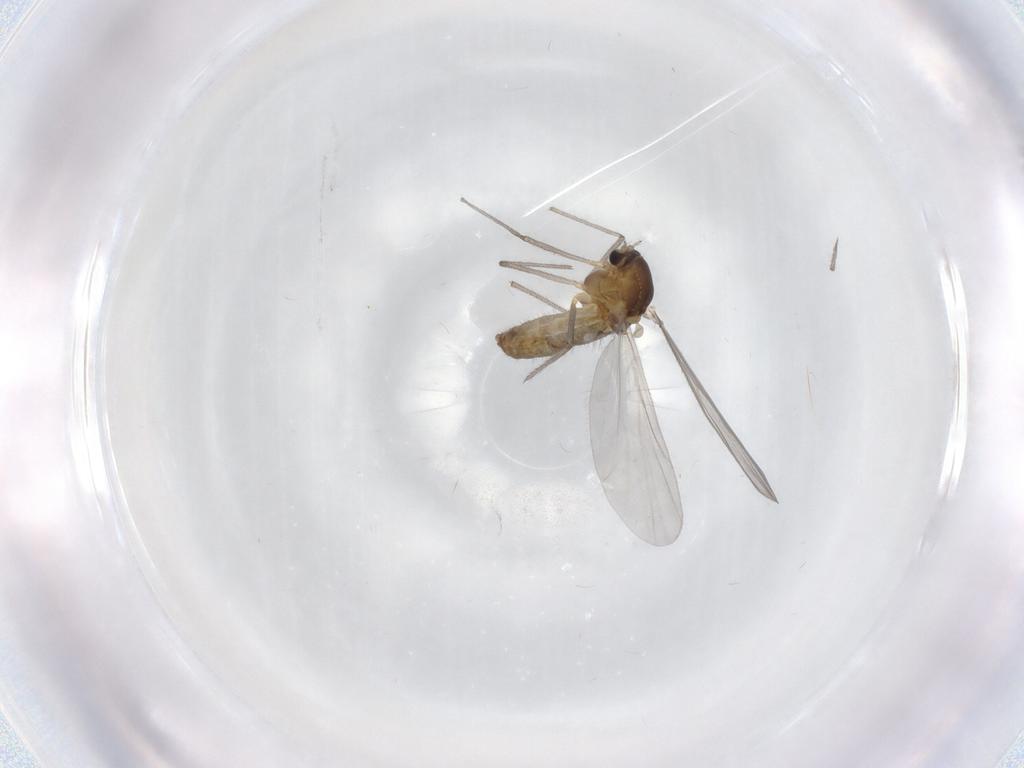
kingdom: Animalia
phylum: Arthropoda
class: Insecta
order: Diptera
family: Chironomidae
